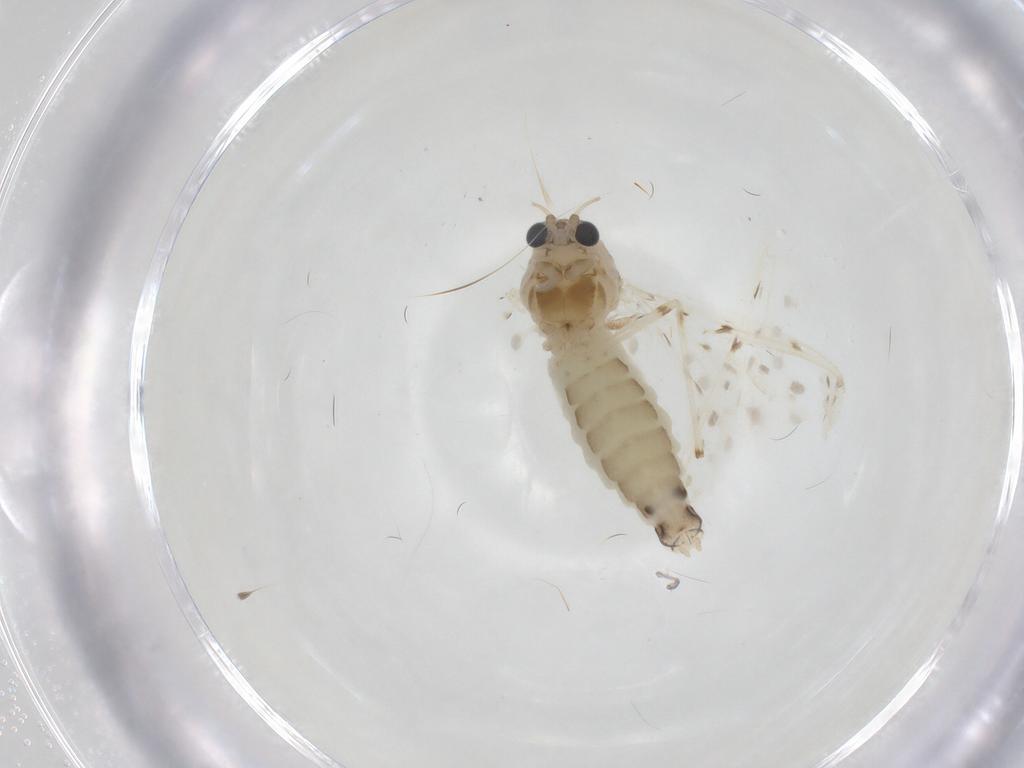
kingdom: Animalia
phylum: Arthropoda
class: Insecta
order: Diptera
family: Chironomidae
